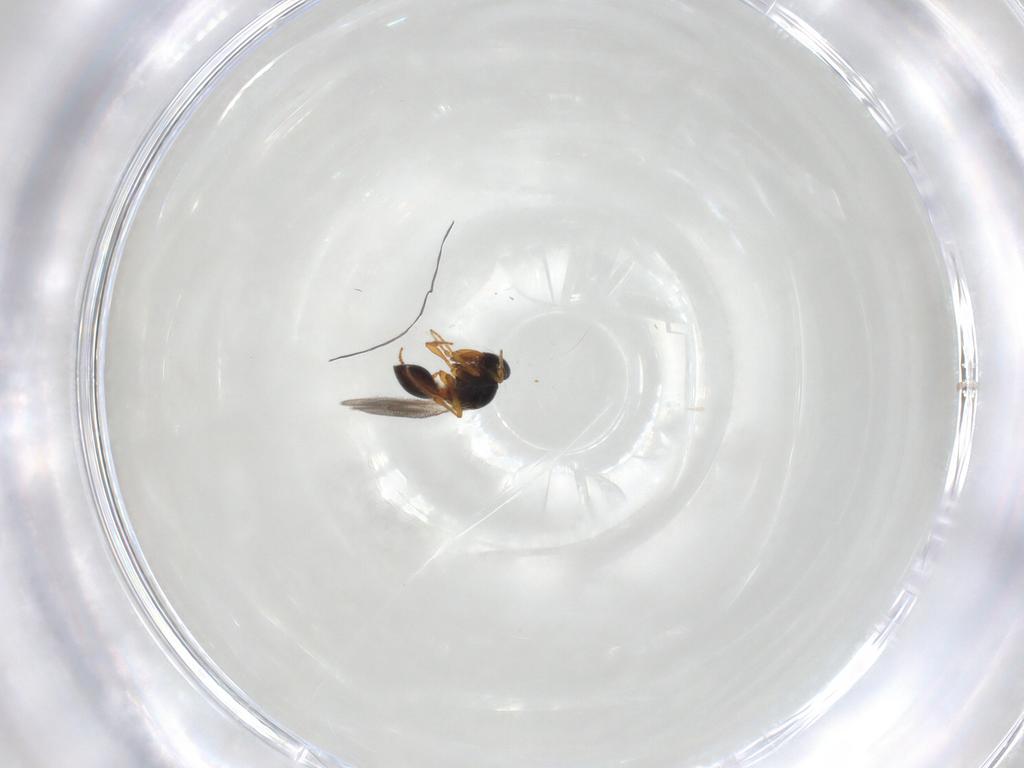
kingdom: Animalia
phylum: Arthropoda
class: Insecta
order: Hymenoptera
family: Platygastridae
